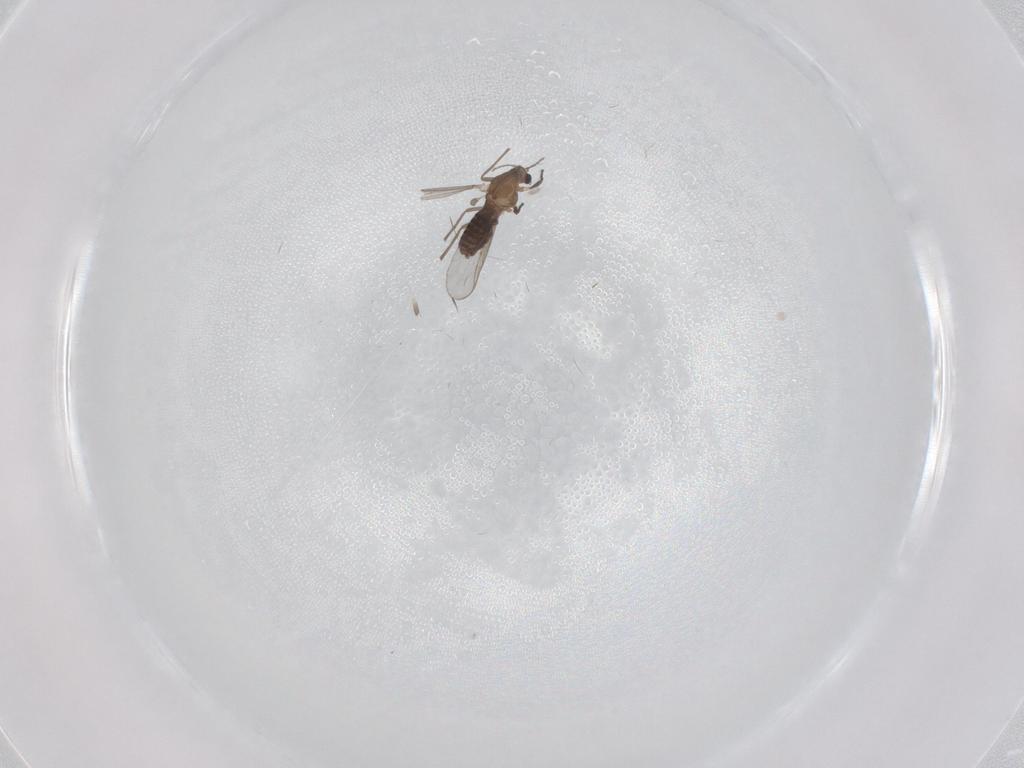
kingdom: Animalia
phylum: Arthropoda
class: Insecta
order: Diptera
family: Chironomidae
